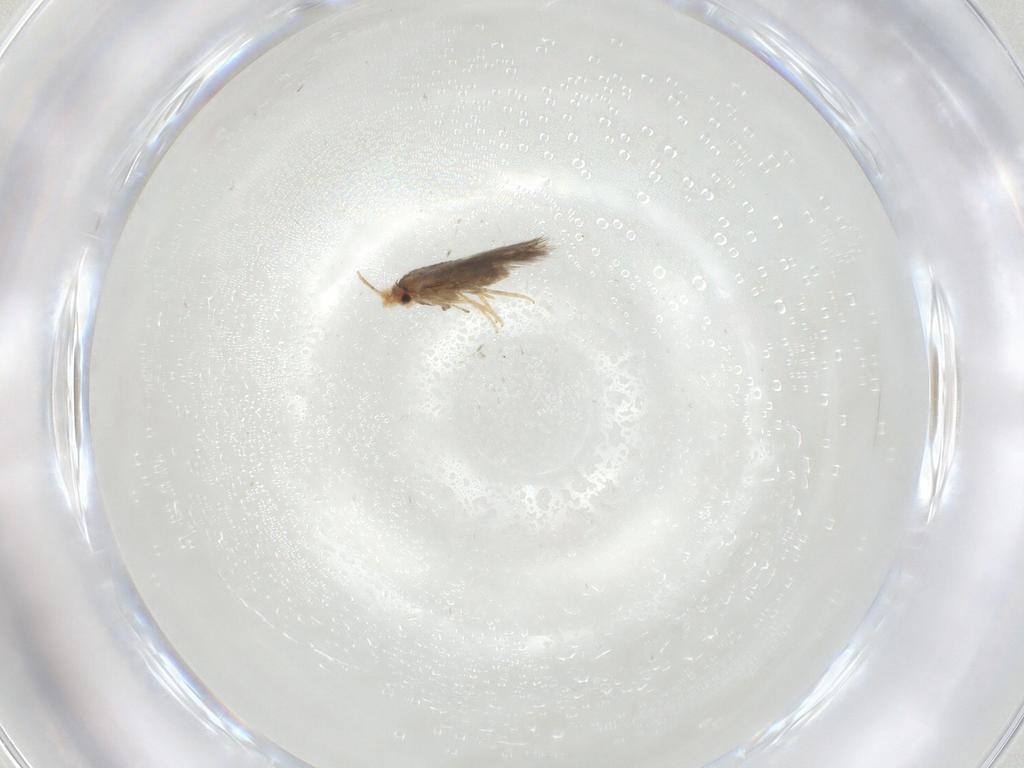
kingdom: Animalia
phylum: Arthropoda
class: Insecta
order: Lepidoptera
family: Nepticulidae
